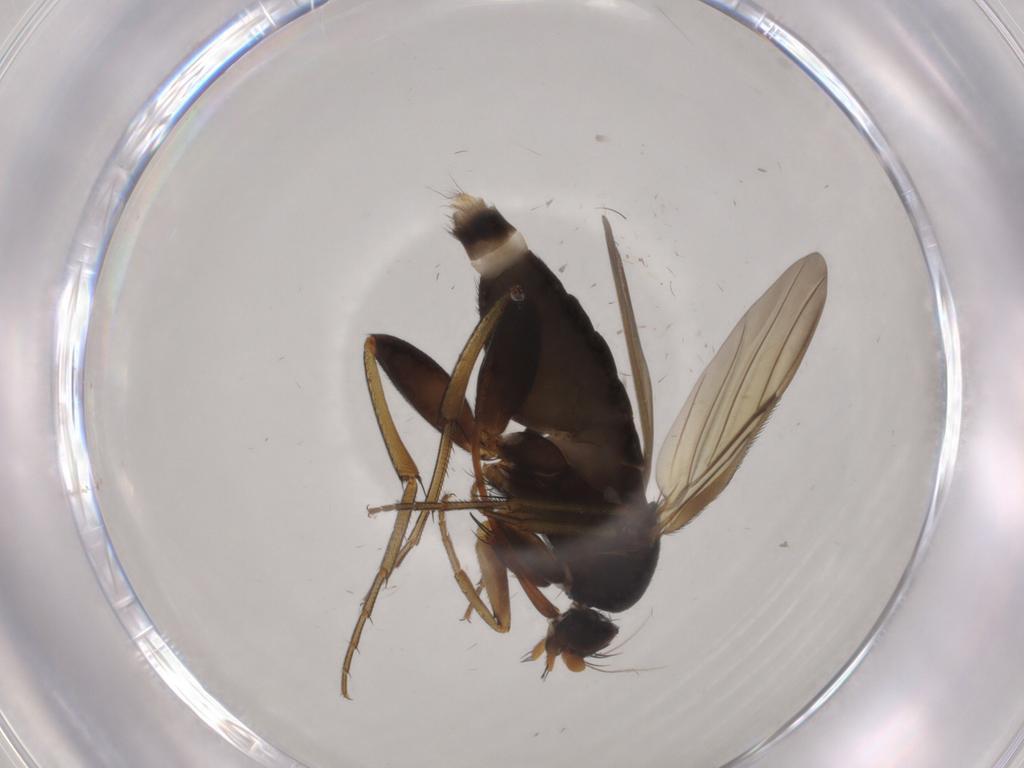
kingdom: Animalia
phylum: Arthropoda
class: Insecta
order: Diptera
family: Phoridae
